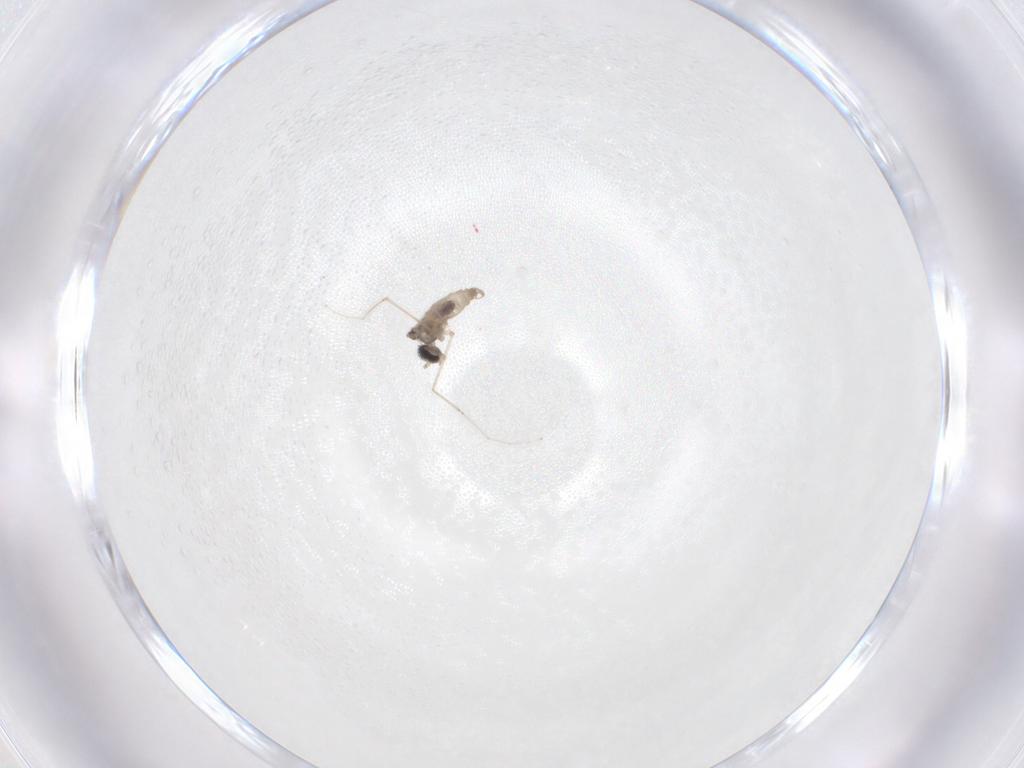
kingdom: Animalia
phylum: Arthropoda
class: Insecta
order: Diptera
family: Cecidomyiidae
